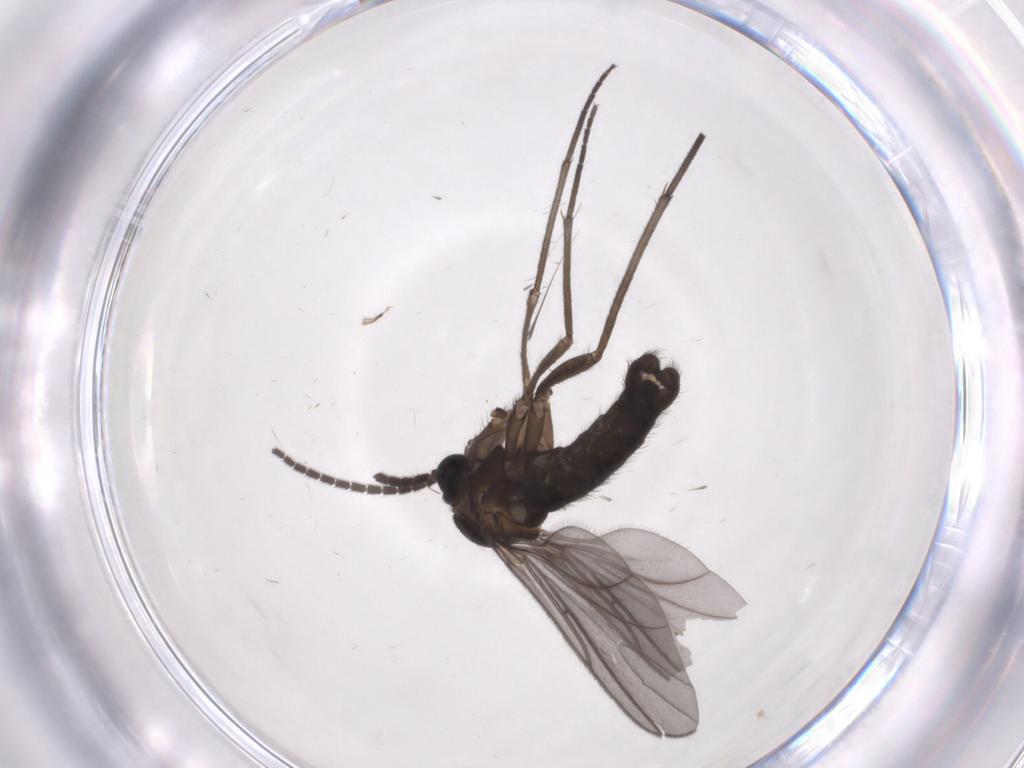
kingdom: Animalia
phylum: Arthropoda
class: Insecta
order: Diptera
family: Sciaridae
